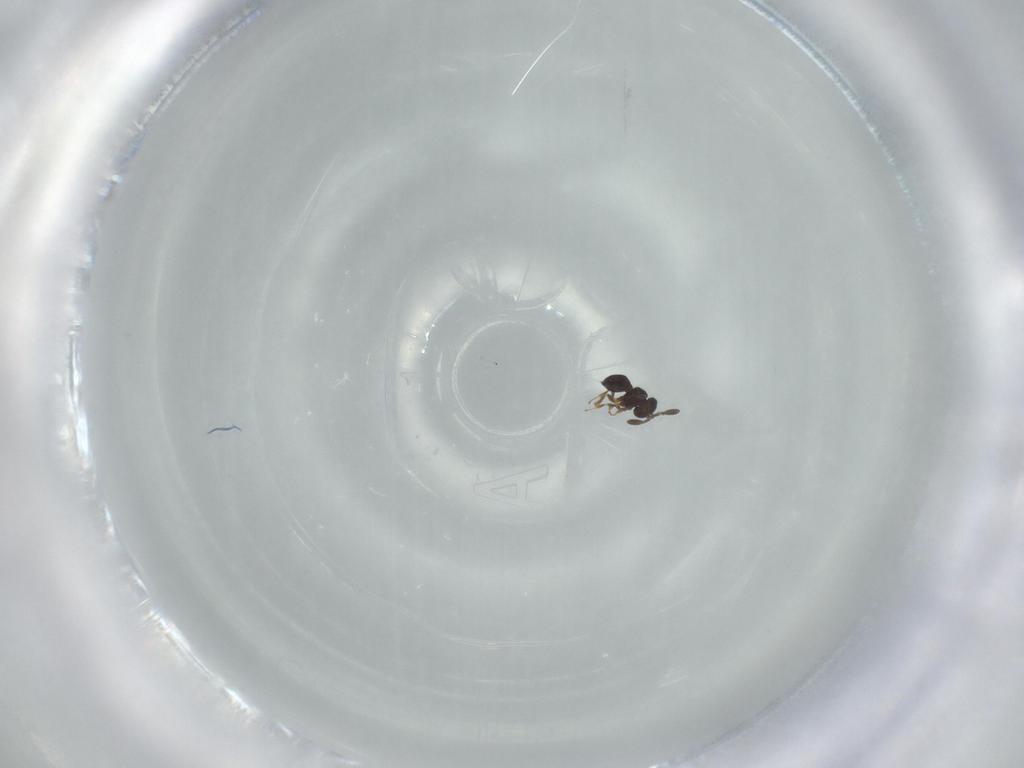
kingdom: Animalia
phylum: Arthropoda
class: Insecta
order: Hymenoptera
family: Scelionidae
